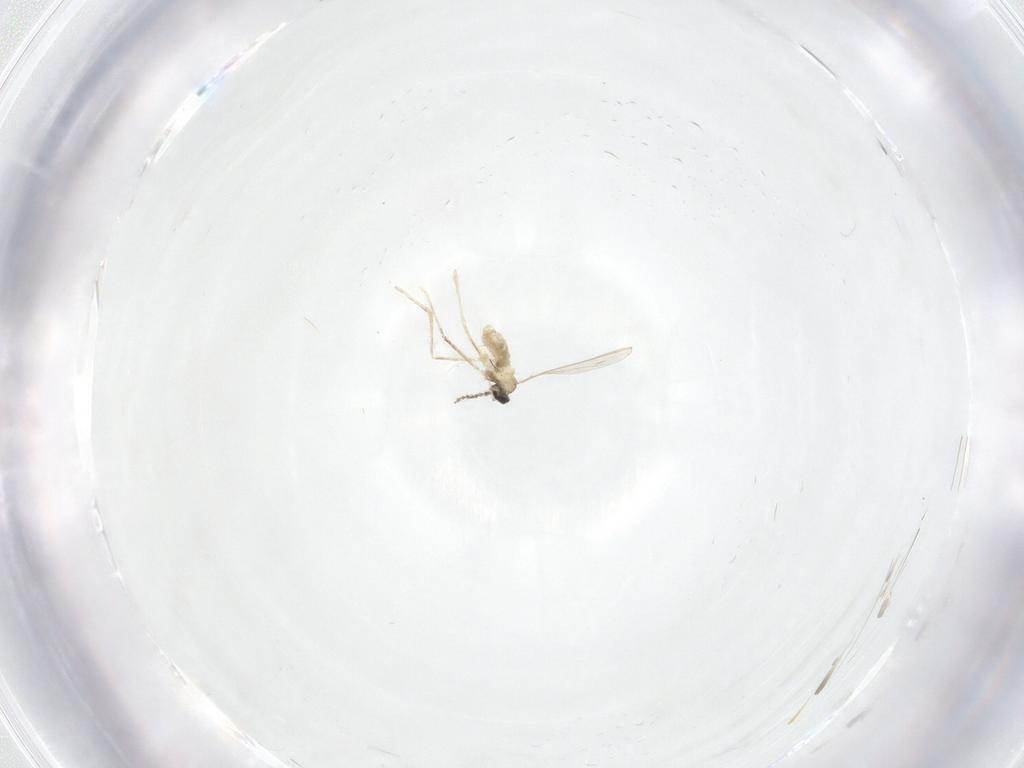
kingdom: Animalia
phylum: Arthropoda
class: Insecta
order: Diptera
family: Cecidomyiidae
